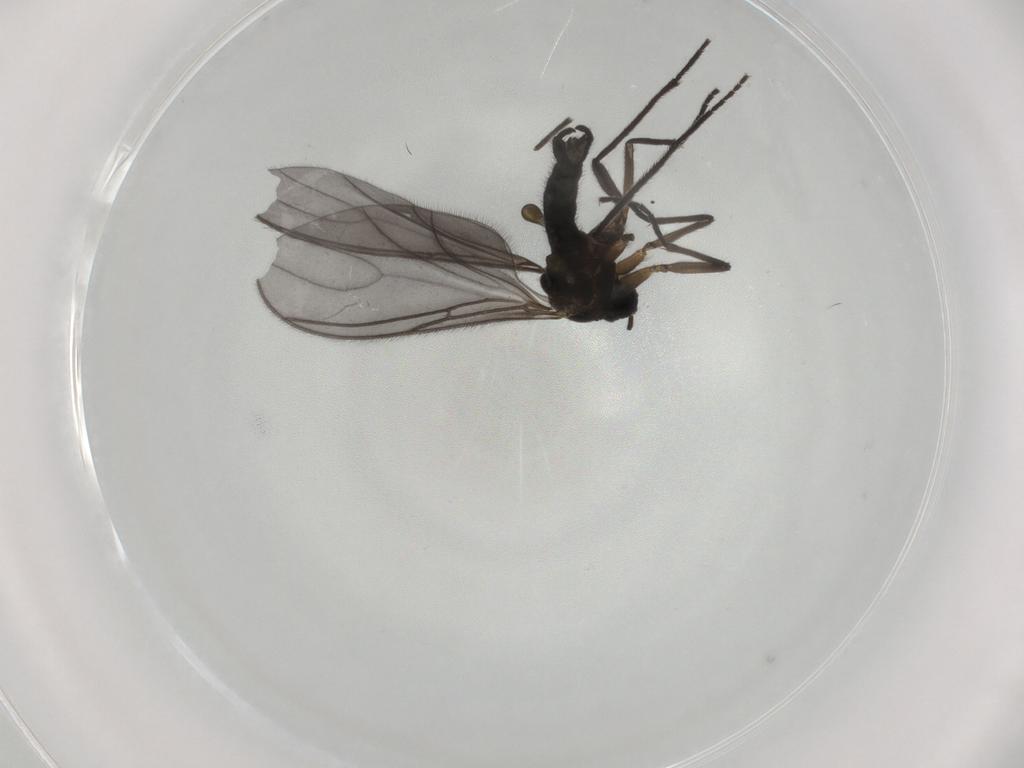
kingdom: Animalia
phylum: Arthropoda
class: Insecta
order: Diptera
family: Sciaridae
